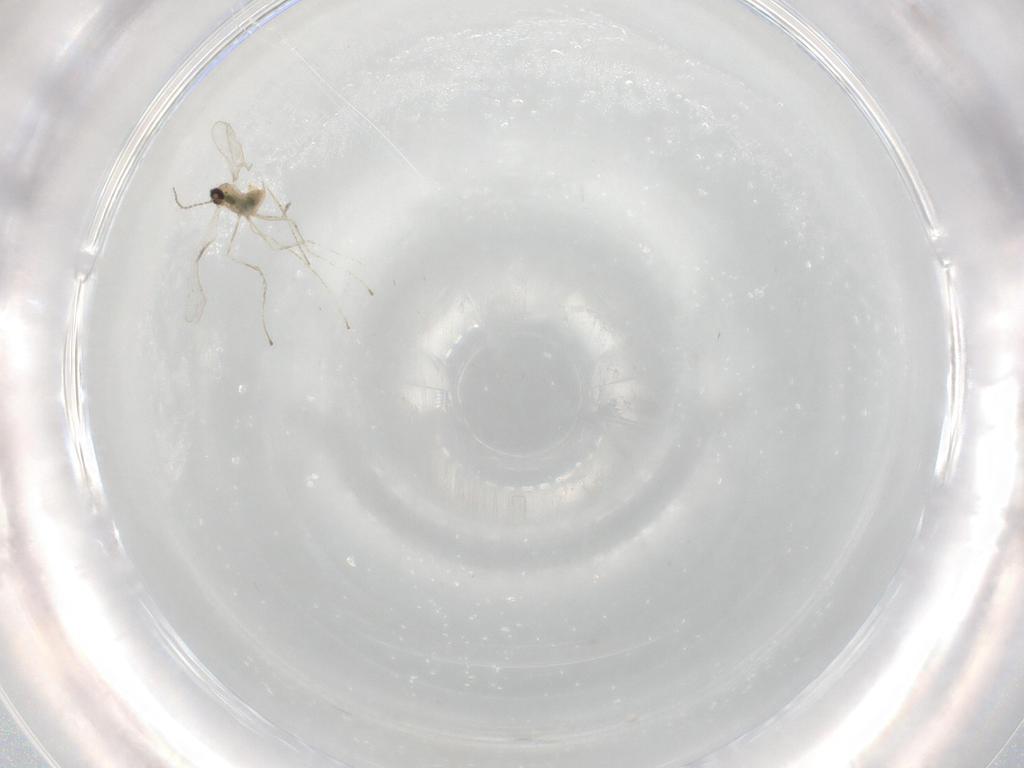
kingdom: Animalia
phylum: Arthropoda
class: Insecta
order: Diptera
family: Cecidomyiidae
